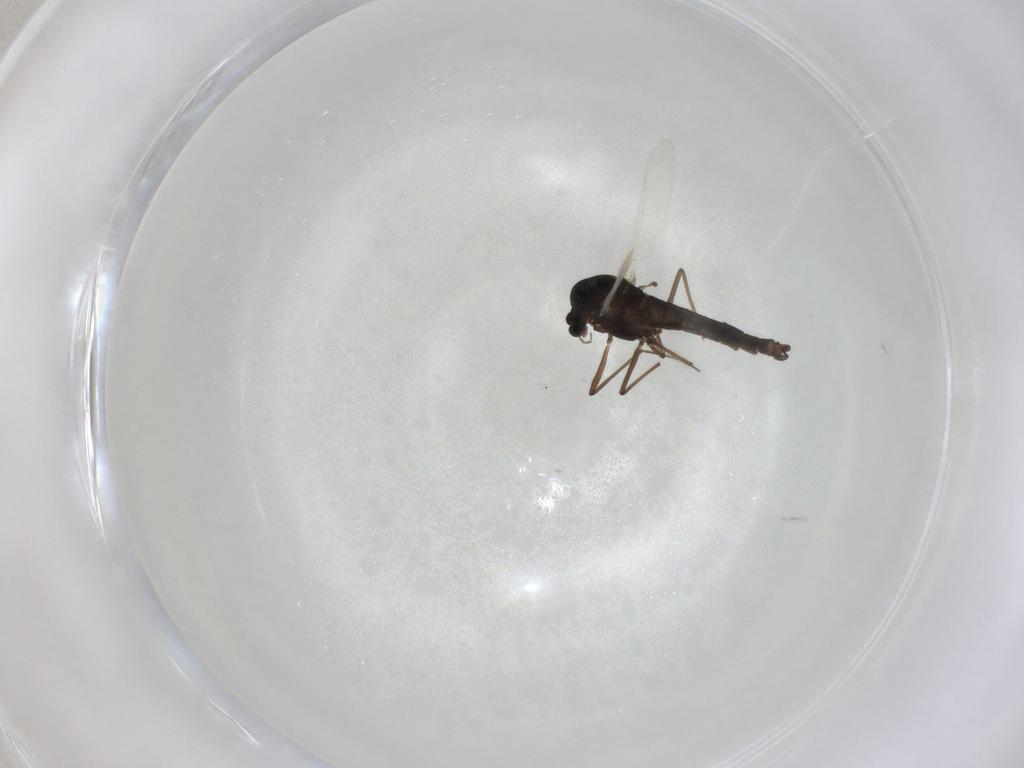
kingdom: Animalia
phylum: Arthropoda
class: Insecta
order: Diptera
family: Chironomidae
